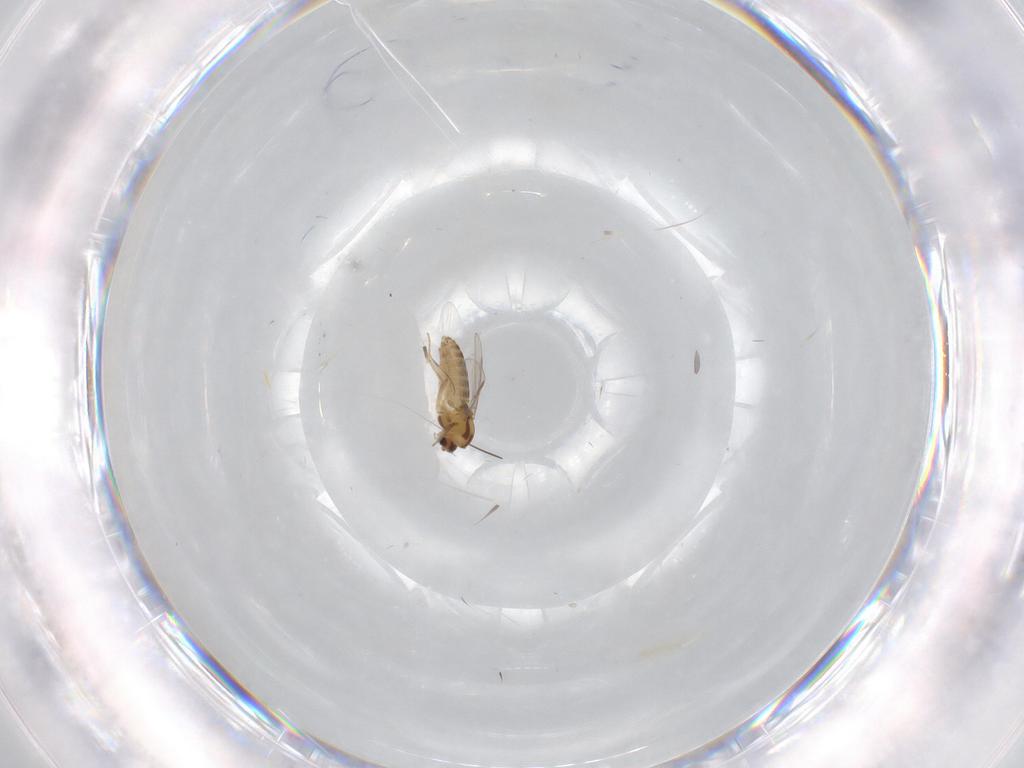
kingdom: Animalia
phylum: Arthropoda
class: Insecta
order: Diptera
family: Chironomidae
